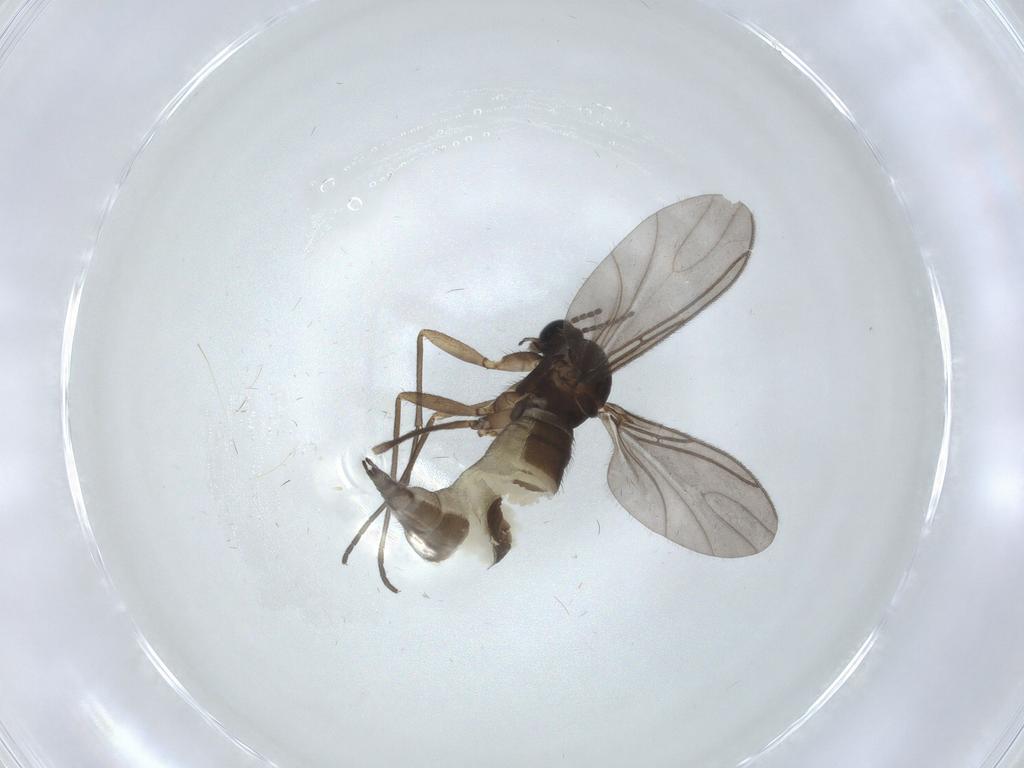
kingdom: Animalia
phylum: Arthropoda
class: Insecta
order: Diptera
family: Sciaridae
